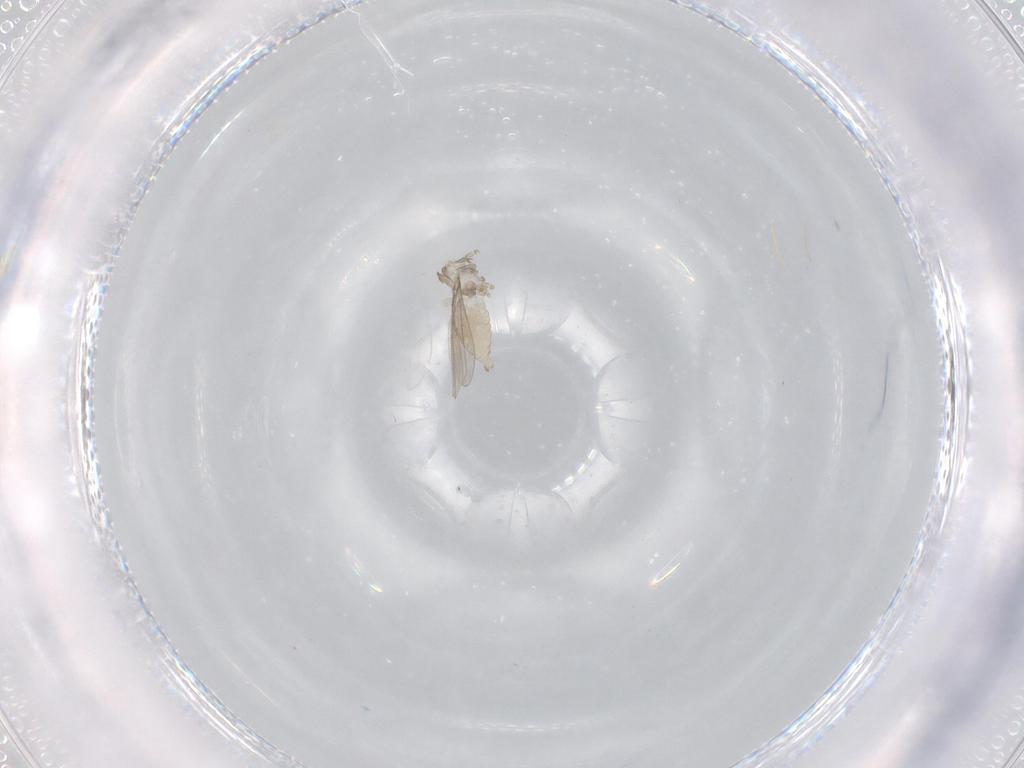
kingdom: Animalia
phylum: Arthropoda
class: Insecta
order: Diptera
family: Cecidomyiidae
